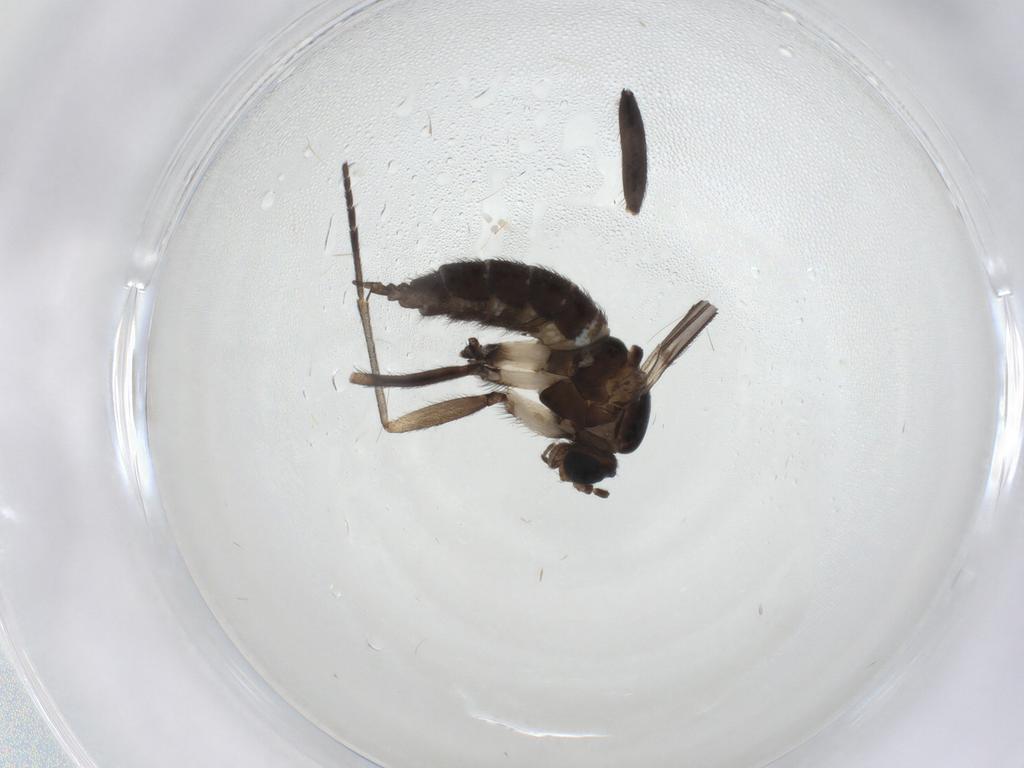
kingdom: Animalia
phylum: Arthropoda
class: Insecta
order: Diptera
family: Sciaridae
